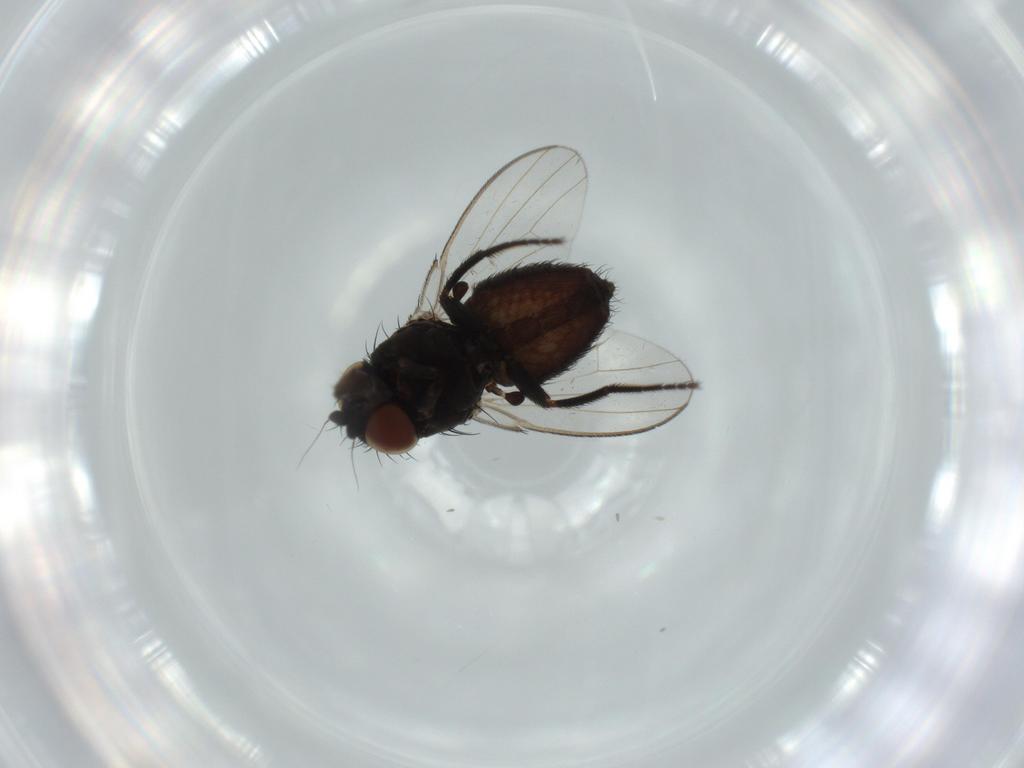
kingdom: Animalia
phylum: Arthropoda
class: Insecta
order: Diptera
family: Milichiidae
